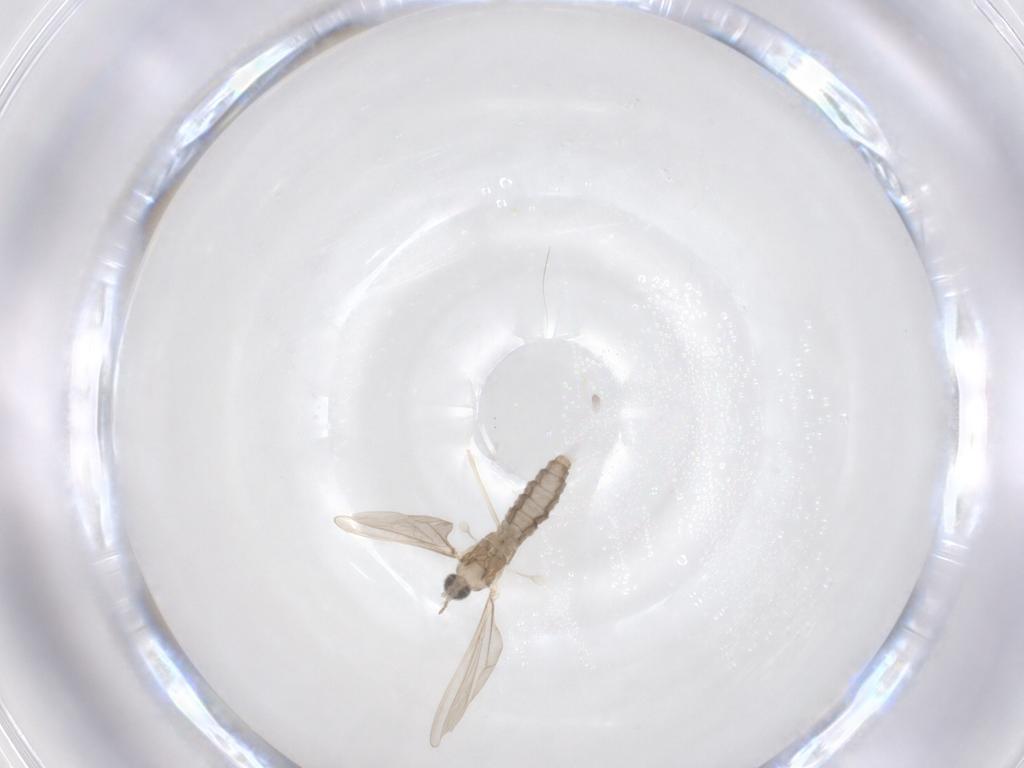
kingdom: Animalia
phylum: Arthropoda
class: Insecta
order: Diptera
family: Cecidomyiidae
